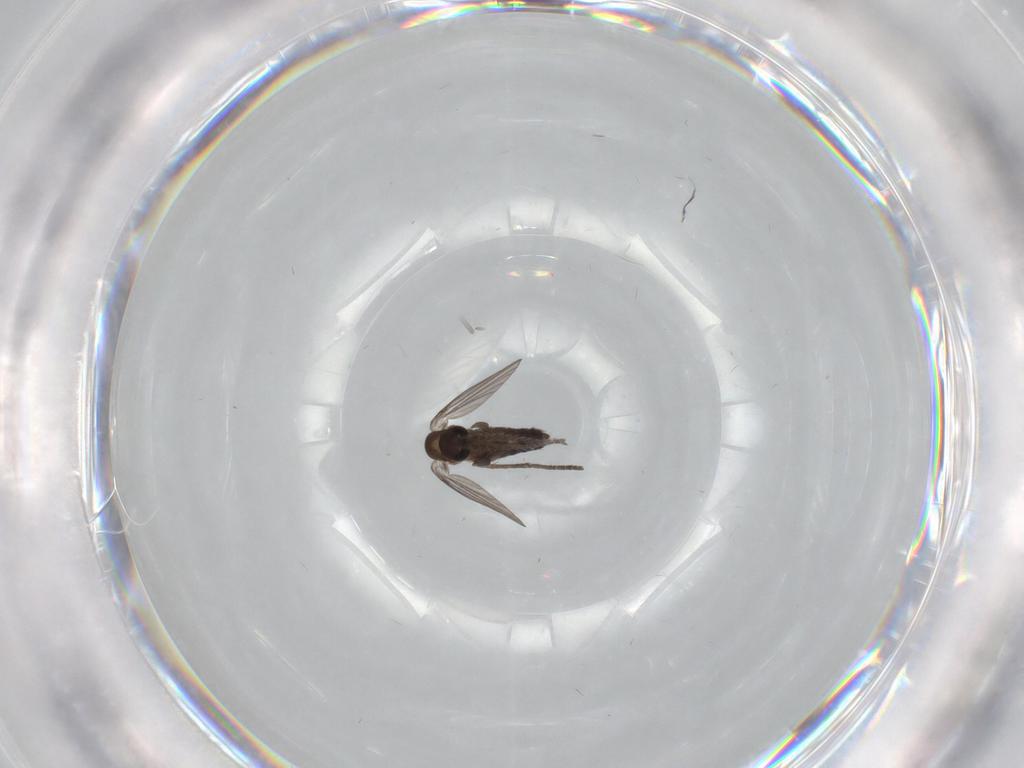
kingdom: Animalia
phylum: Arthropoda
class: Insecta
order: Diptera
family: Psychodidae
